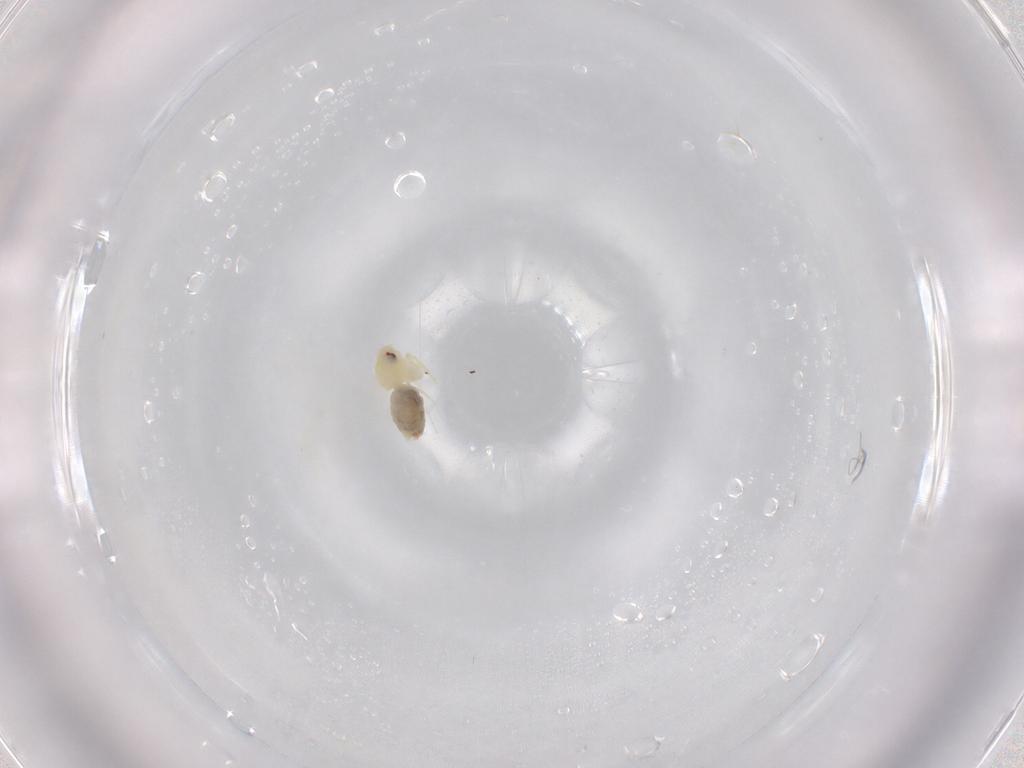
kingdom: Animalia
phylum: Arthropoda
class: Insecta
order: Hemiptera
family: Aleyrodidae
